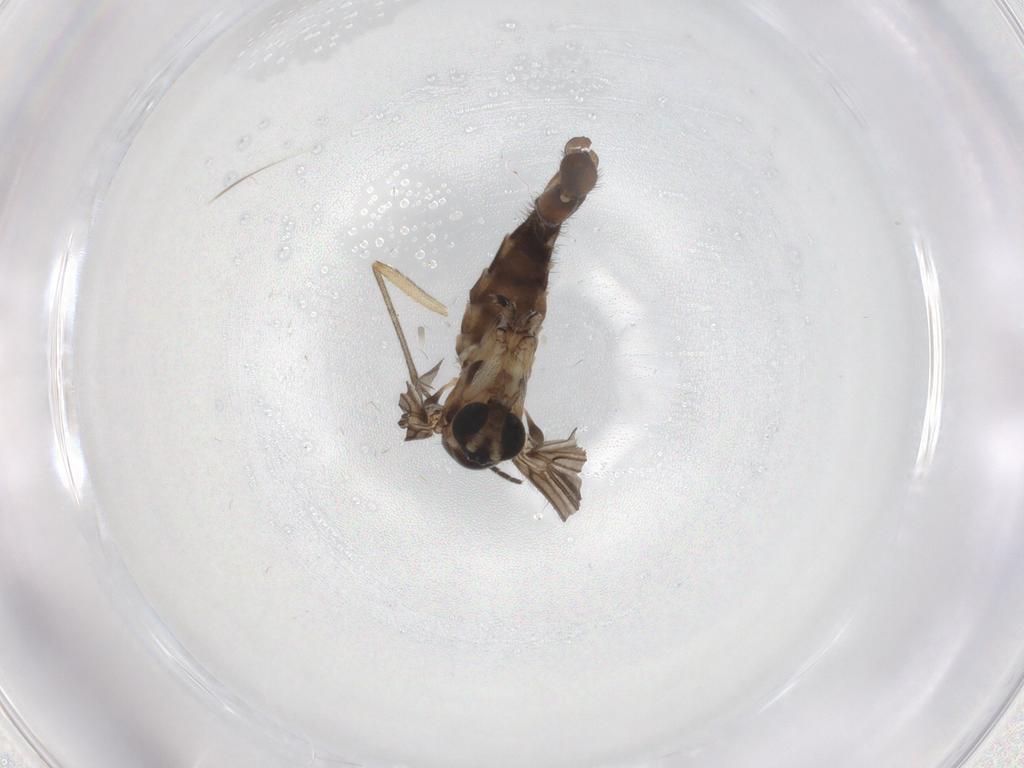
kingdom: Animalia
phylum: Arthropoda
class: Insecta
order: Diptera
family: Sciaridae
